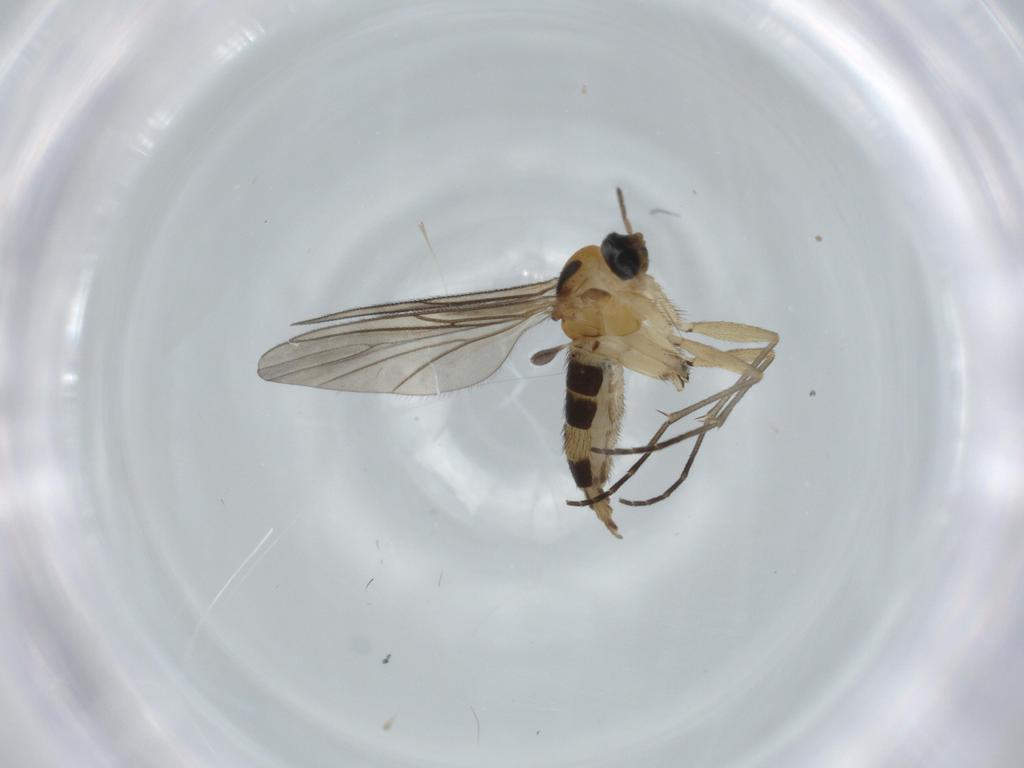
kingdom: Animalia
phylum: Arthropoda
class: Insecta
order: Diptera
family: Sciaridae
